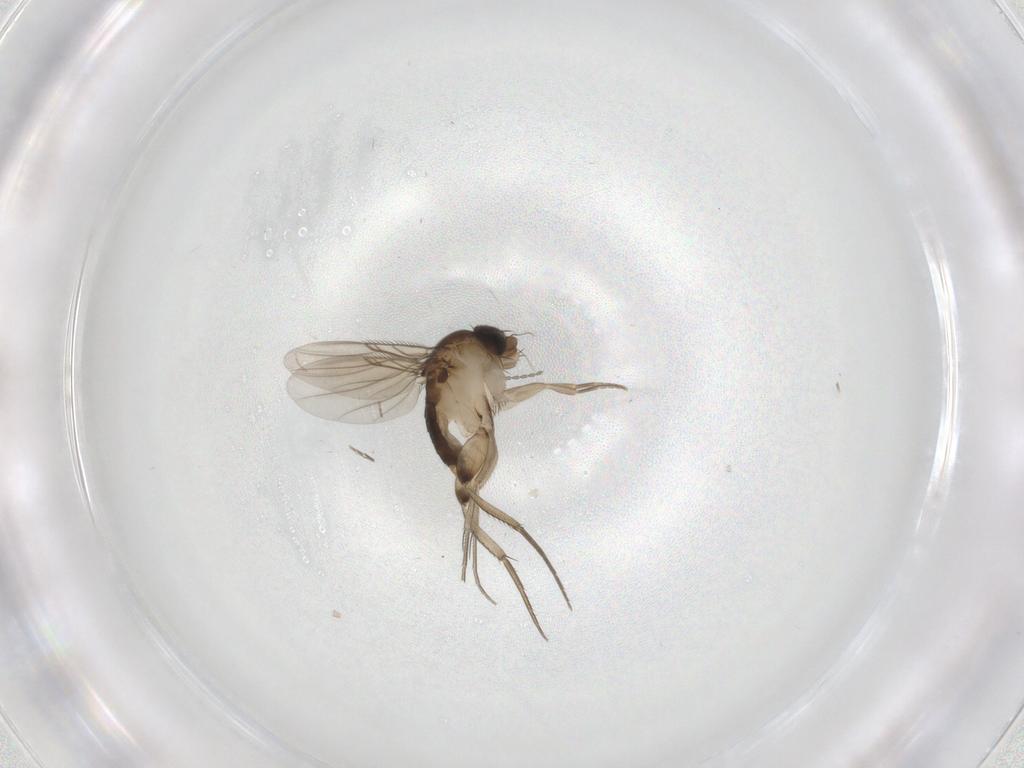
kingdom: Animalia
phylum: Arthropoda
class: Insecta
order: Diptera
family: Phoridae
